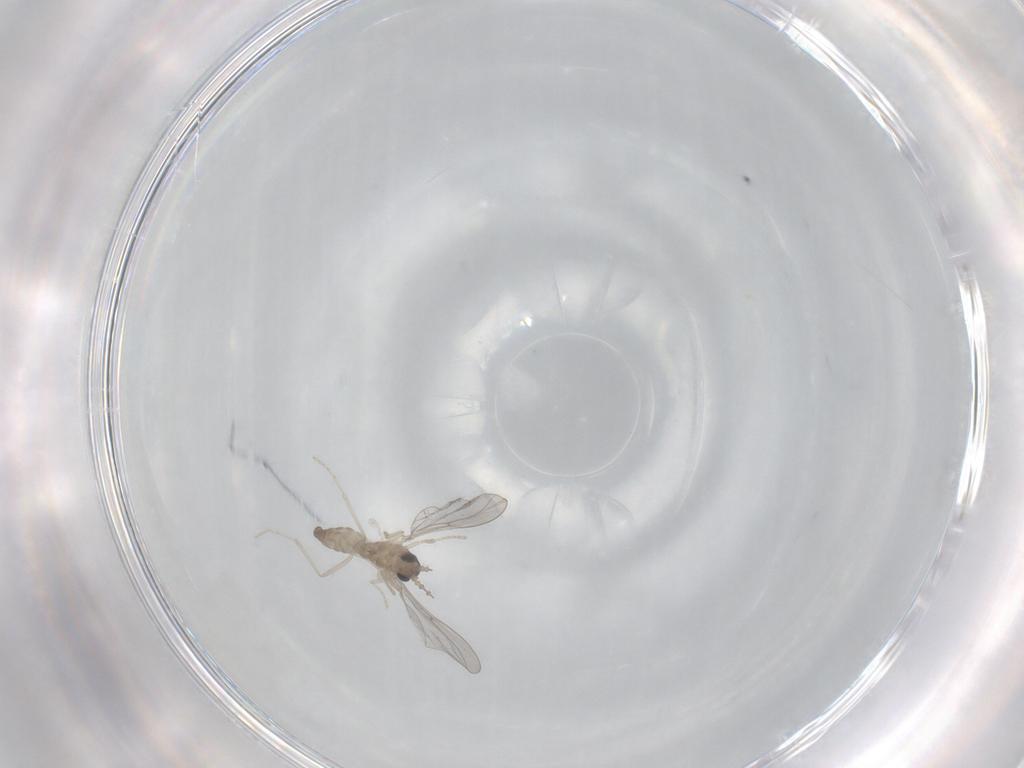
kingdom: Animalia
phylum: Arthropoda
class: Insecta
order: Diptera
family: Cecidomyiidae
